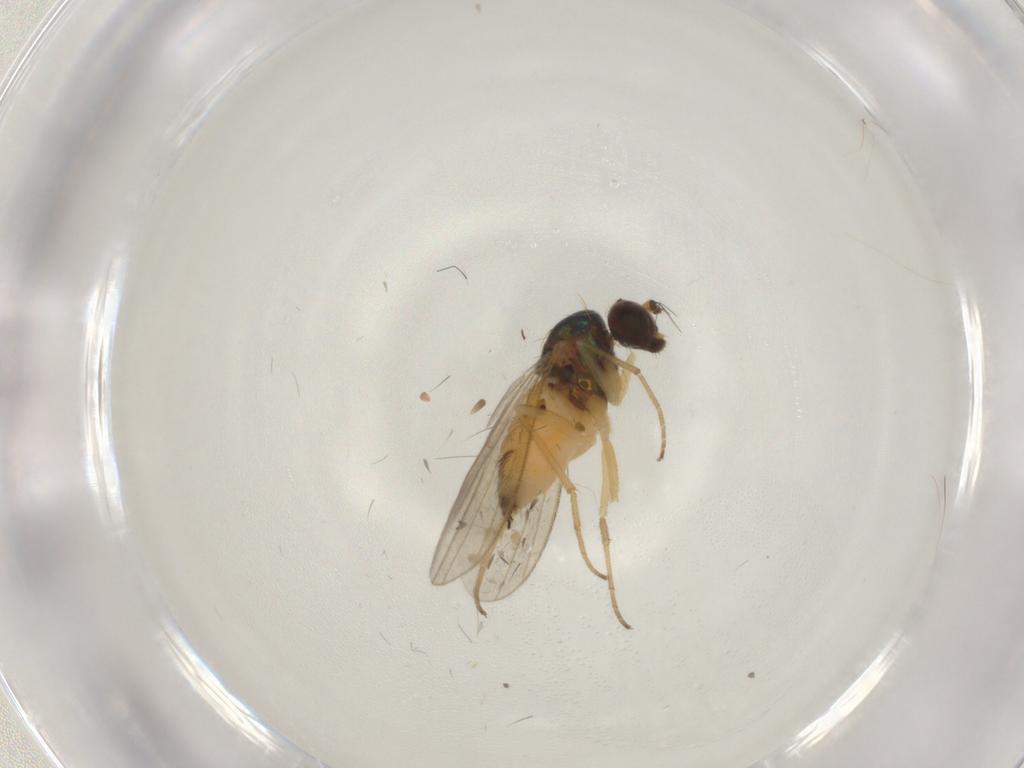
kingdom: Animalia
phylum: Arthropoda
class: Insecta
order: Diptera
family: Dolichopodidae
